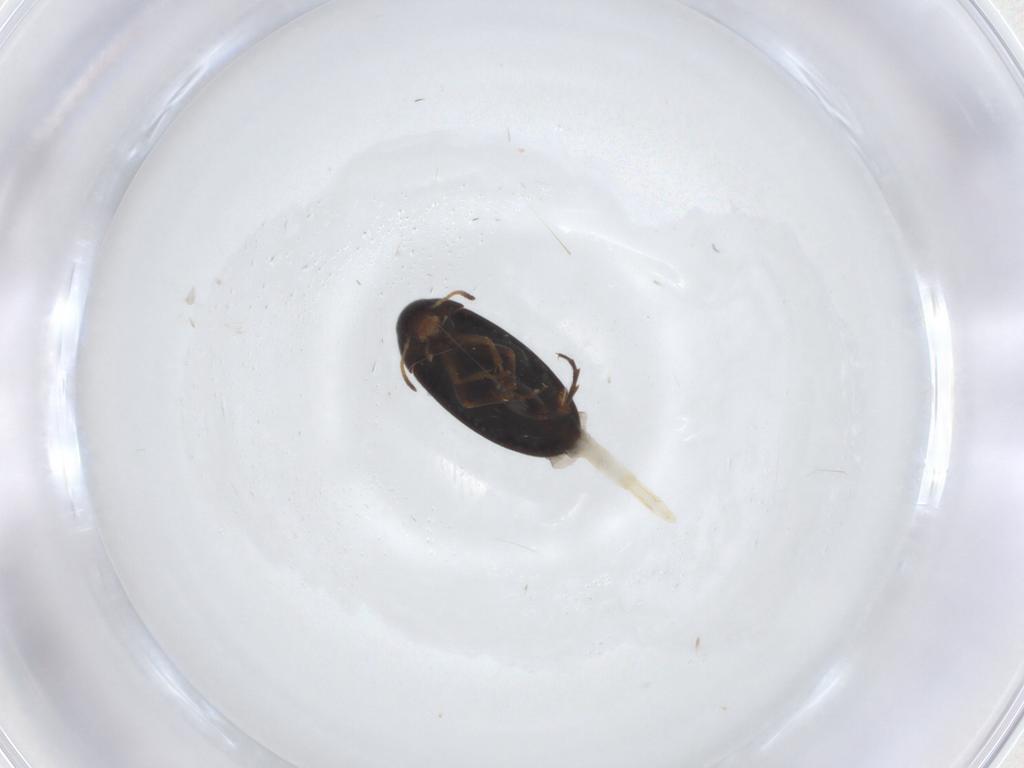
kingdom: Animalia
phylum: Arthropoda
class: Insecta
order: Coleoptera
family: Scraptiidae
